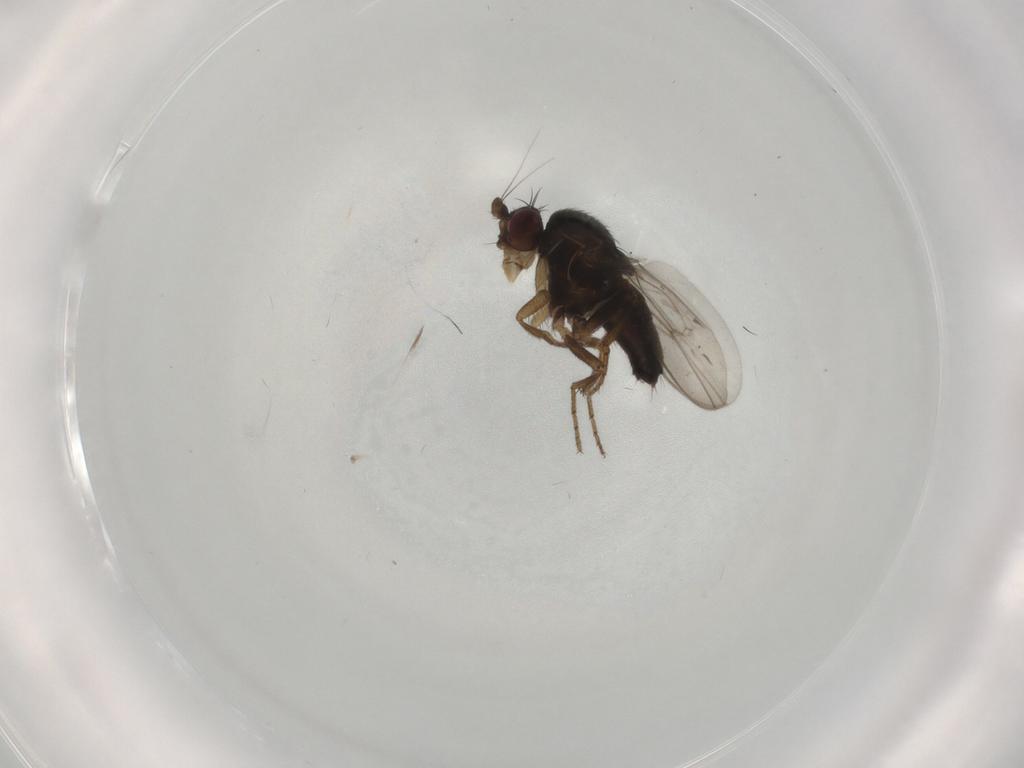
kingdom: Animalia
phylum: Arthropoda
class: Insecta
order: Diptera
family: Sphaeroceridae
